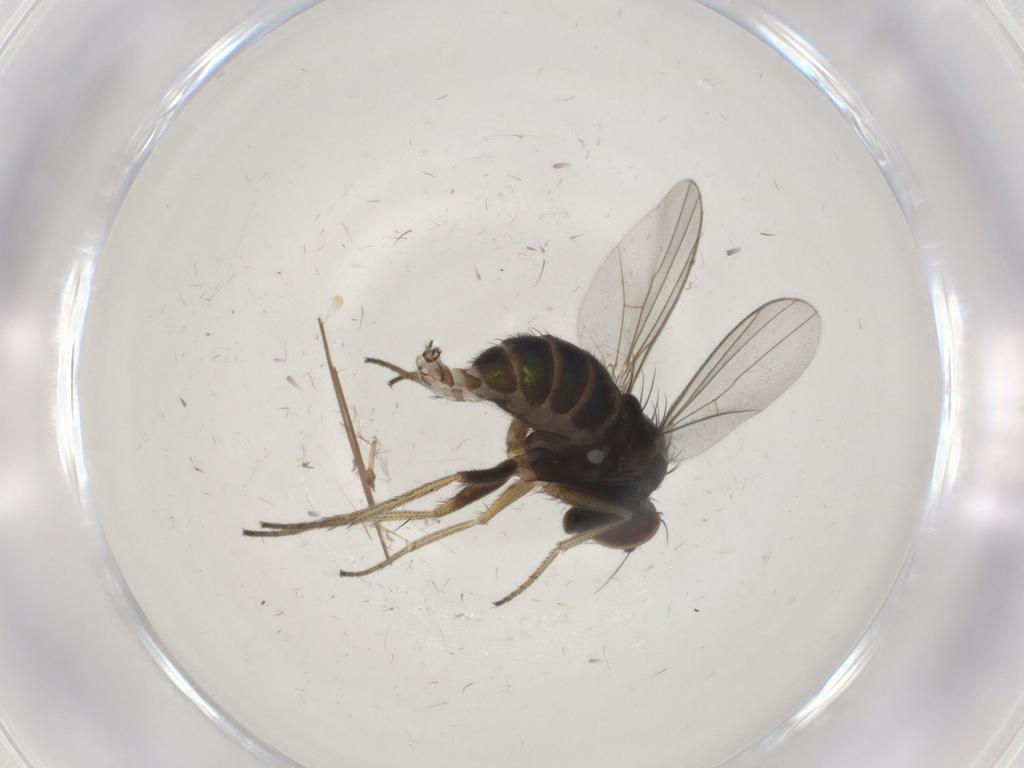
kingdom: Animalia
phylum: Arthropoda
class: Insecta
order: Diptera
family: Dolichopodidae
